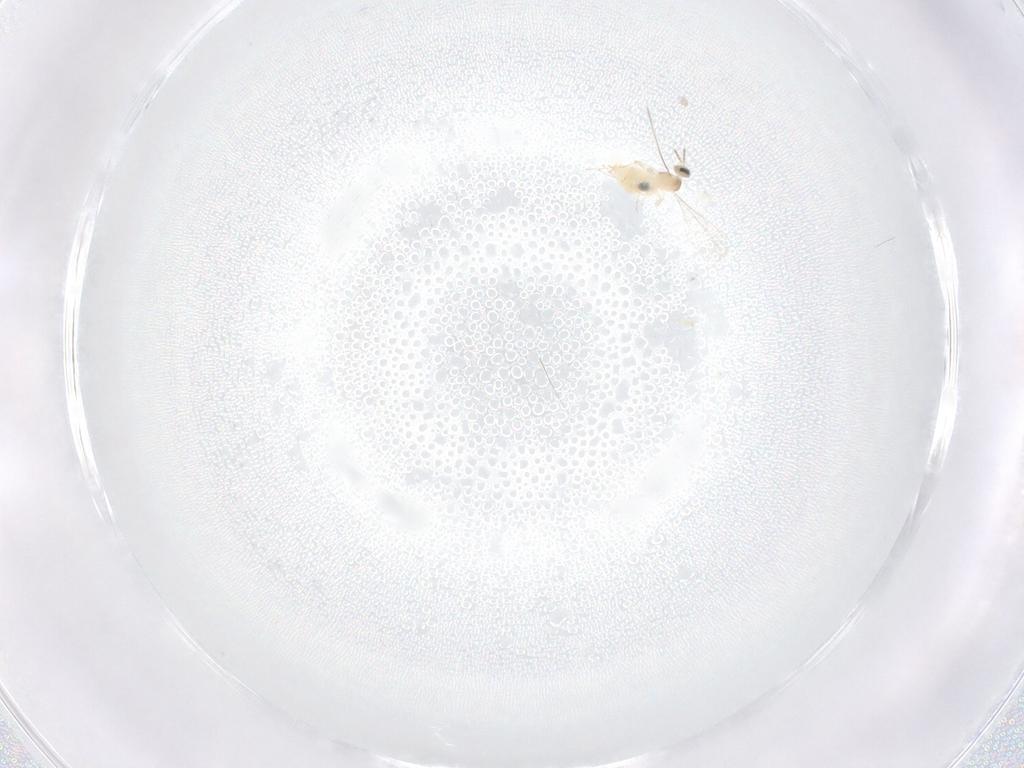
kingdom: Animalia
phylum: Arthropoda
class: Insecta
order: Diptera
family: Cecidomyiidae
